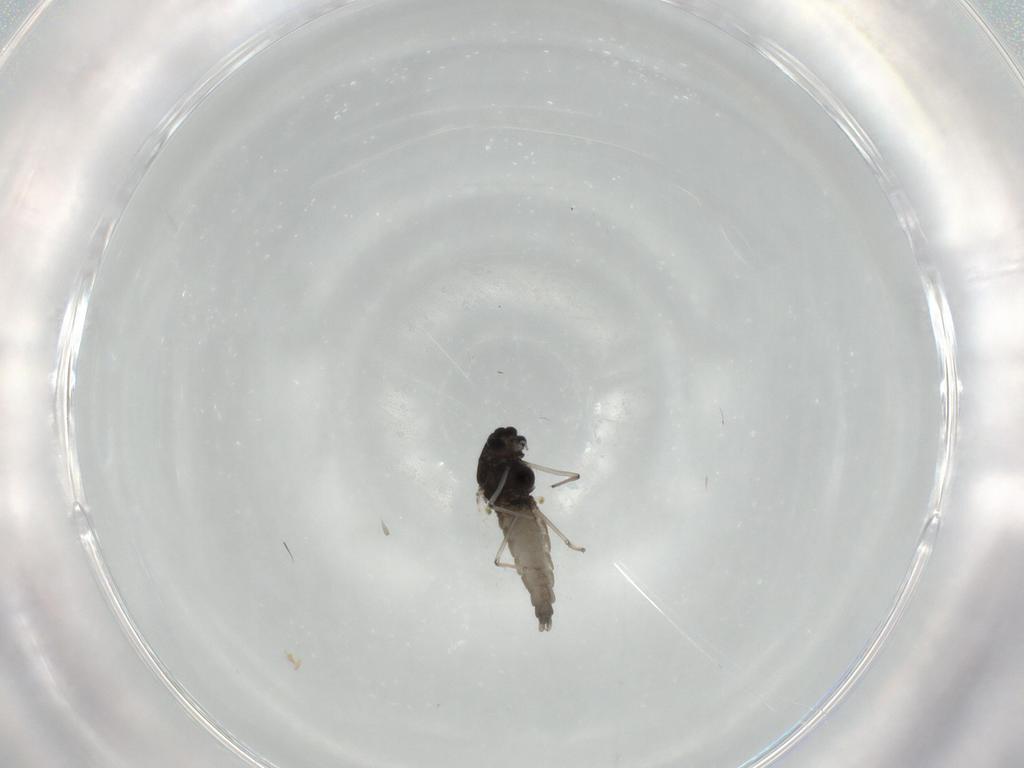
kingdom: Animalia
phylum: Arthropoda
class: Insecta
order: Diptera
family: Chironomidae
